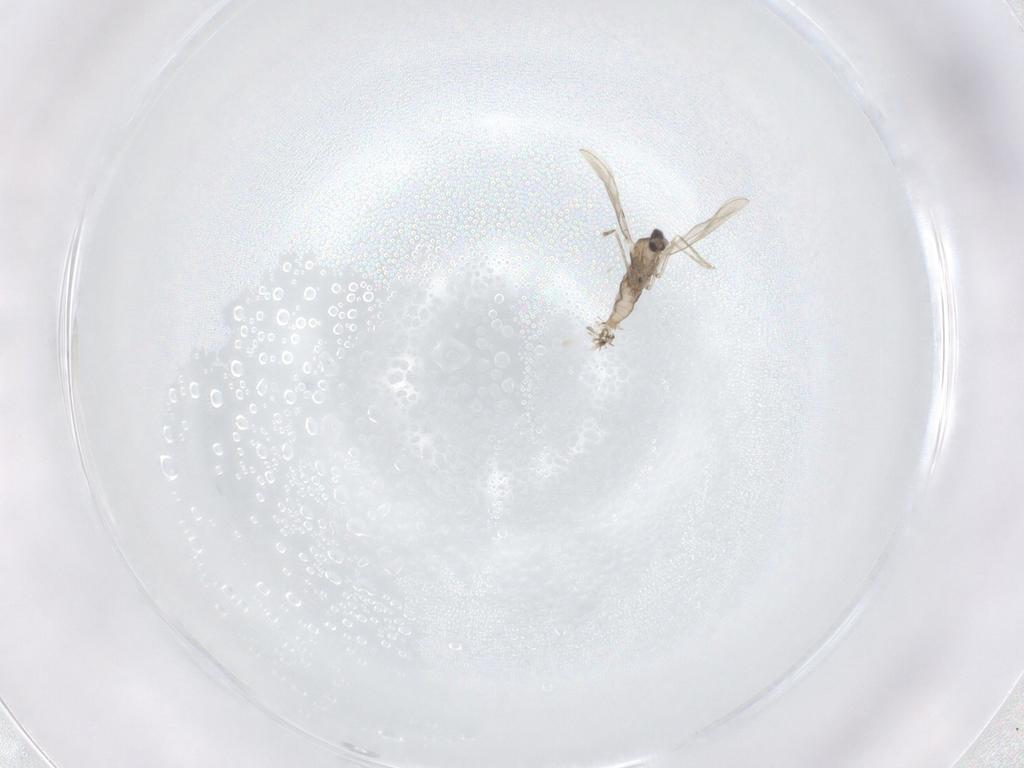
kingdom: Animalia
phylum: Arthropoda
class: Insecta
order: Diptera
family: Cecidomyiidae
